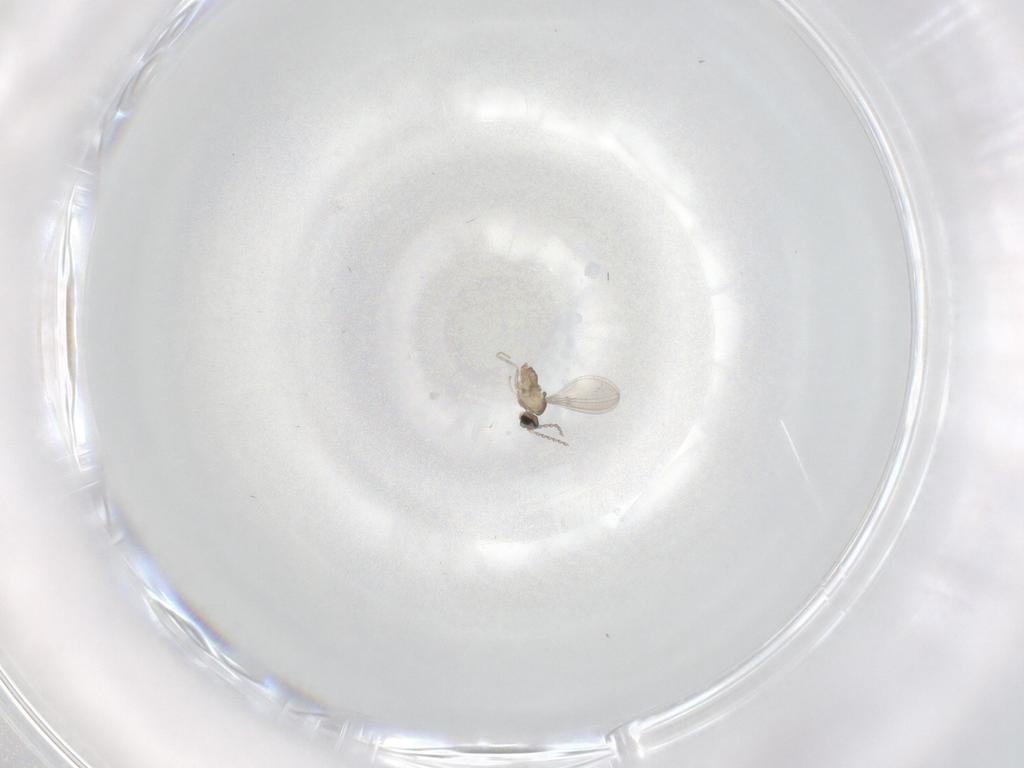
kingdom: Animalia
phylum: Arthropoda
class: Insecta
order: Diptera
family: Cecidomyiidae
